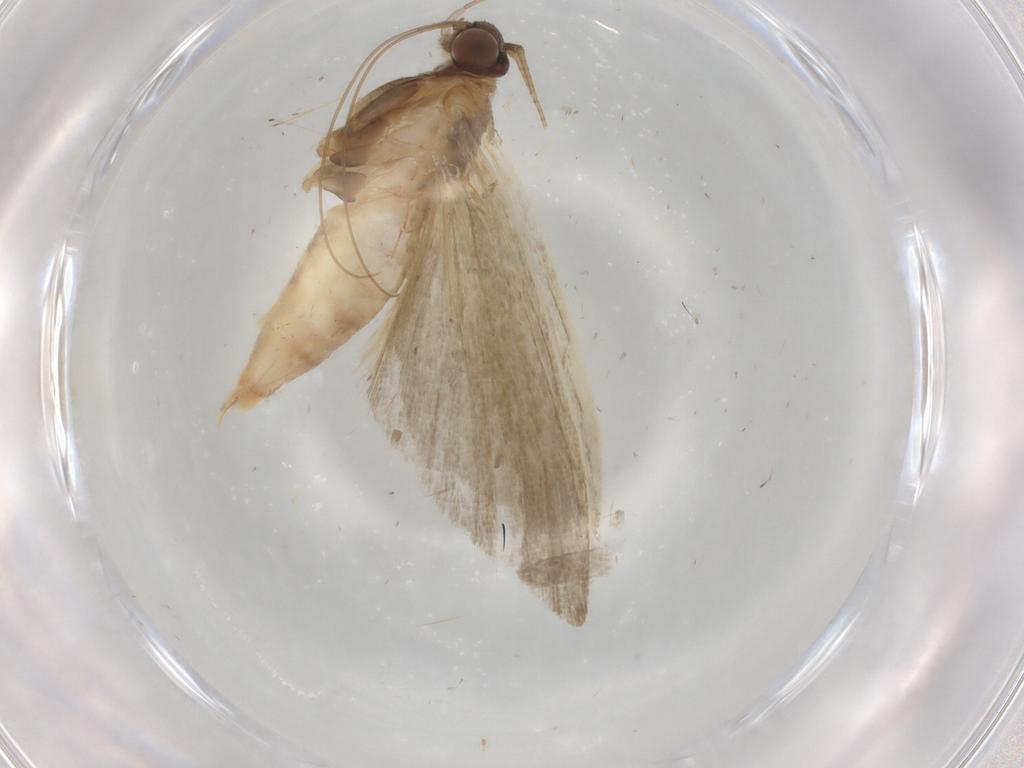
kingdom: Animalia
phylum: Arthropoda
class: Insecta
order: Lepidoptera
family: Noctuidae
